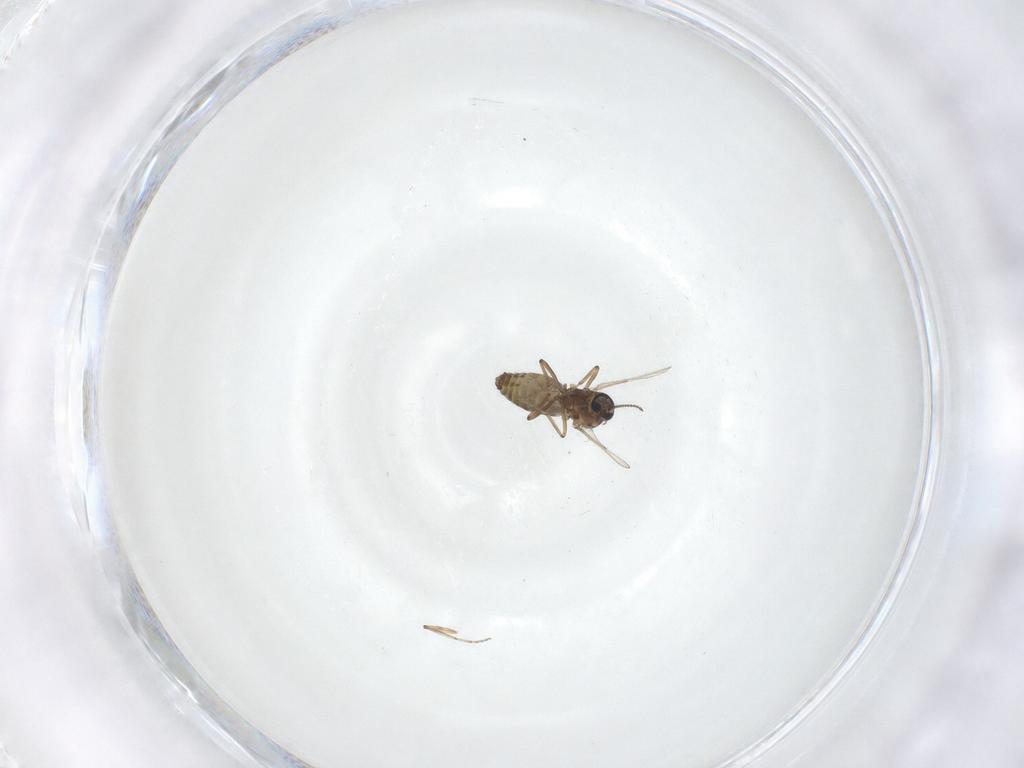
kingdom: Animalia
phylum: Arthropoda
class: Insecta
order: Diptera
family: Ceratopogonidae
